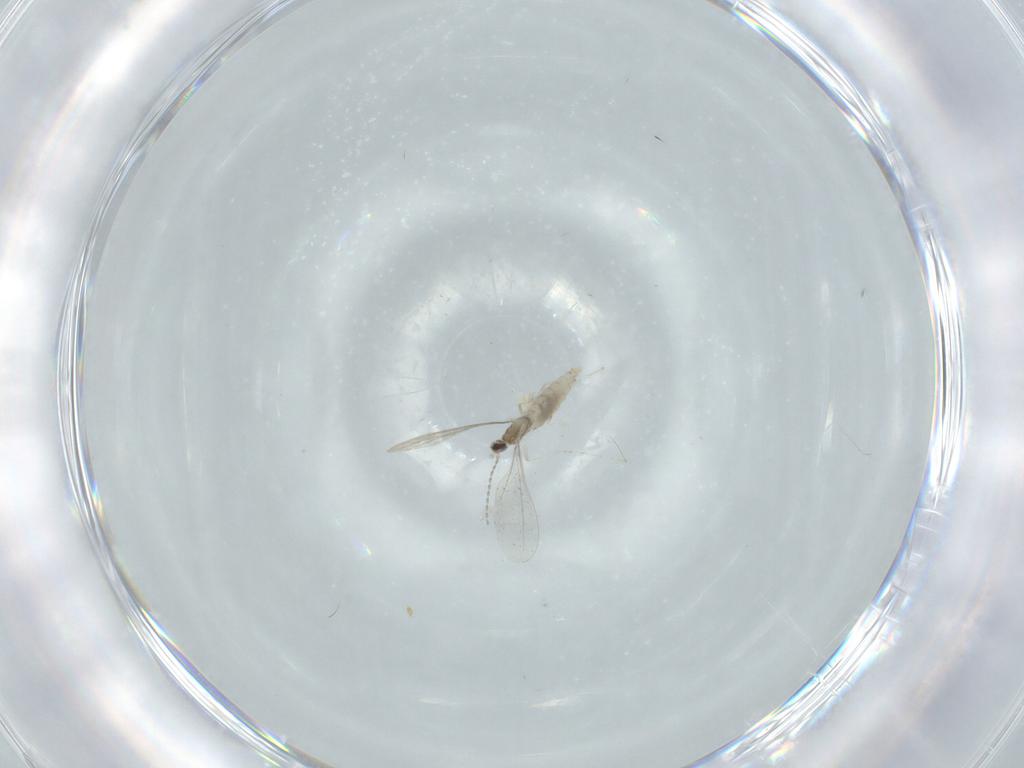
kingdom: Animalia
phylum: Arthropoda
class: Insecta
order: Diptera
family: Cecidomyiidae
